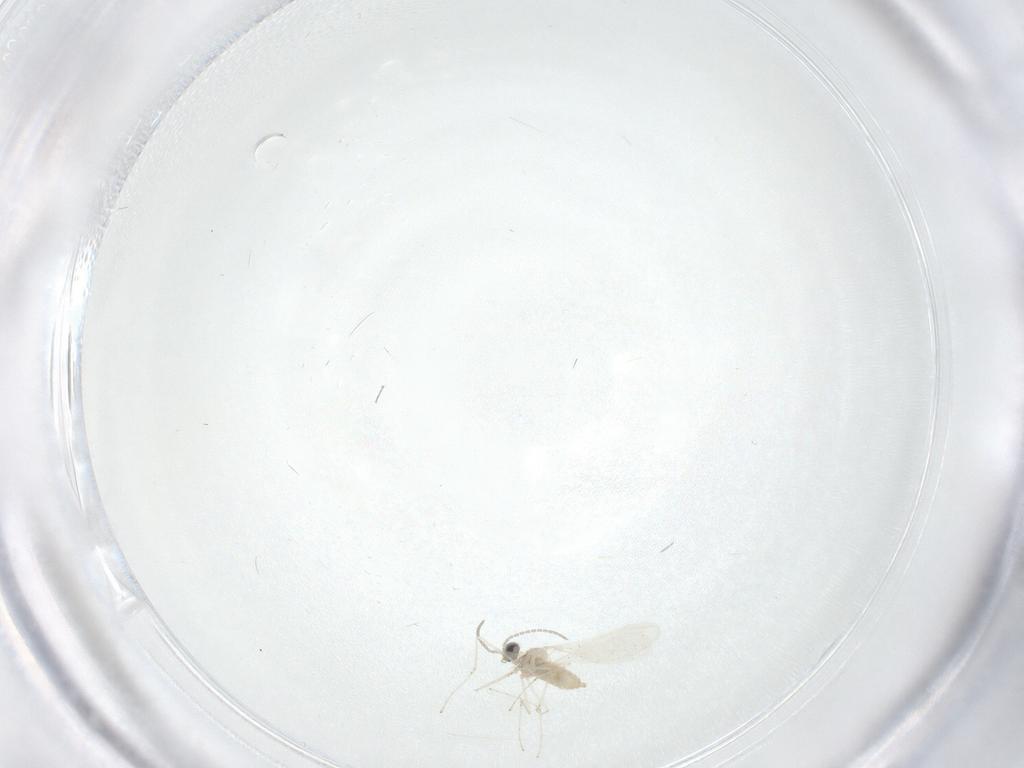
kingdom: Animalia
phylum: Arthropoda
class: Insecta
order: Diptera
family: Cecidomyiidae
